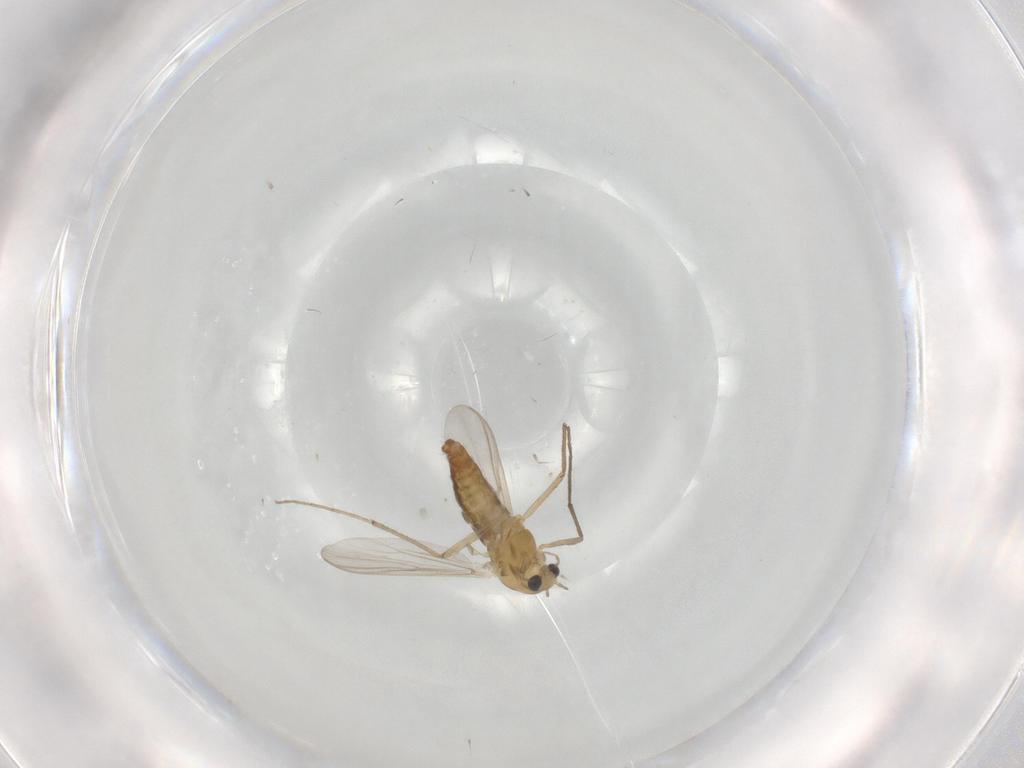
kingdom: Animalia
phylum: Arthropoda
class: Insecta
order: Diptera
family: Chironomidae
